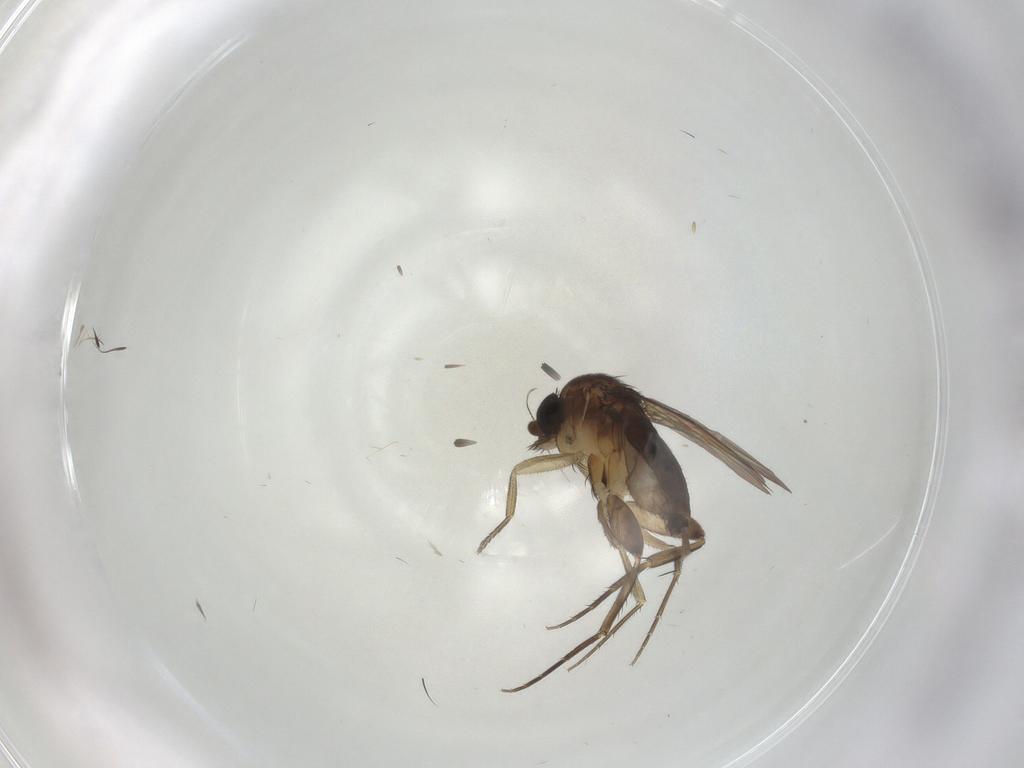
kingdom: Animalia
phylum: Arthropoda
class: Insecta
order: Diptera
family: Phoridae
